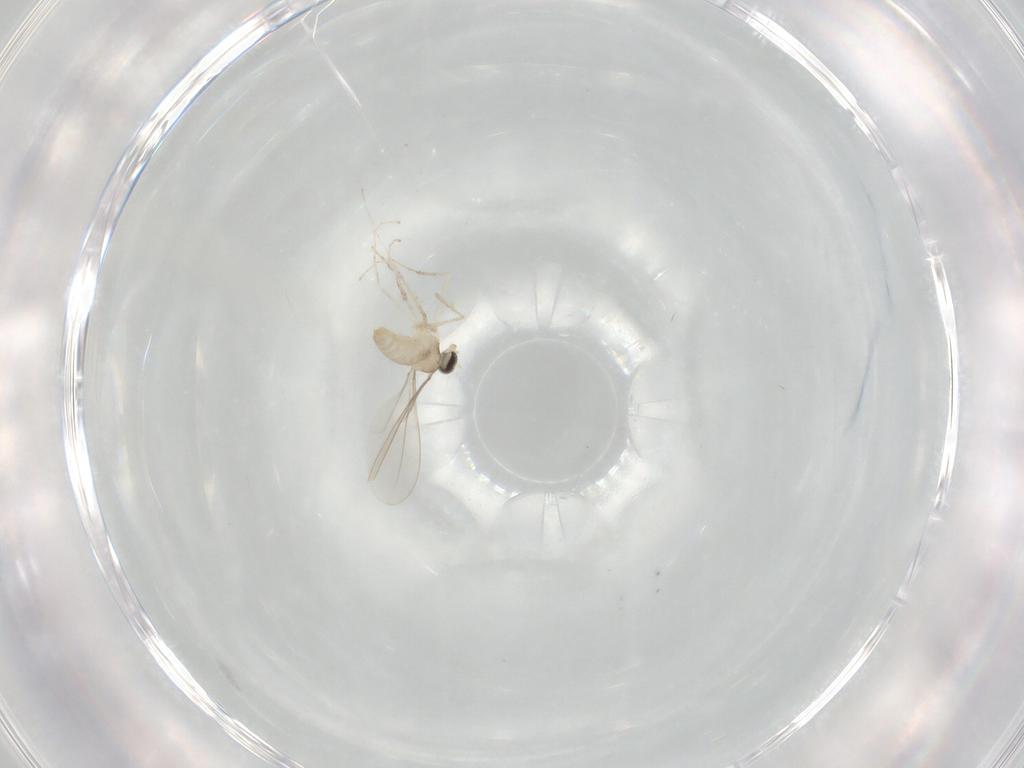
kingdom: Animalia
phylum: Arthropoda
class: Insecta
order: Diptera
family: Cecidomyiidae
